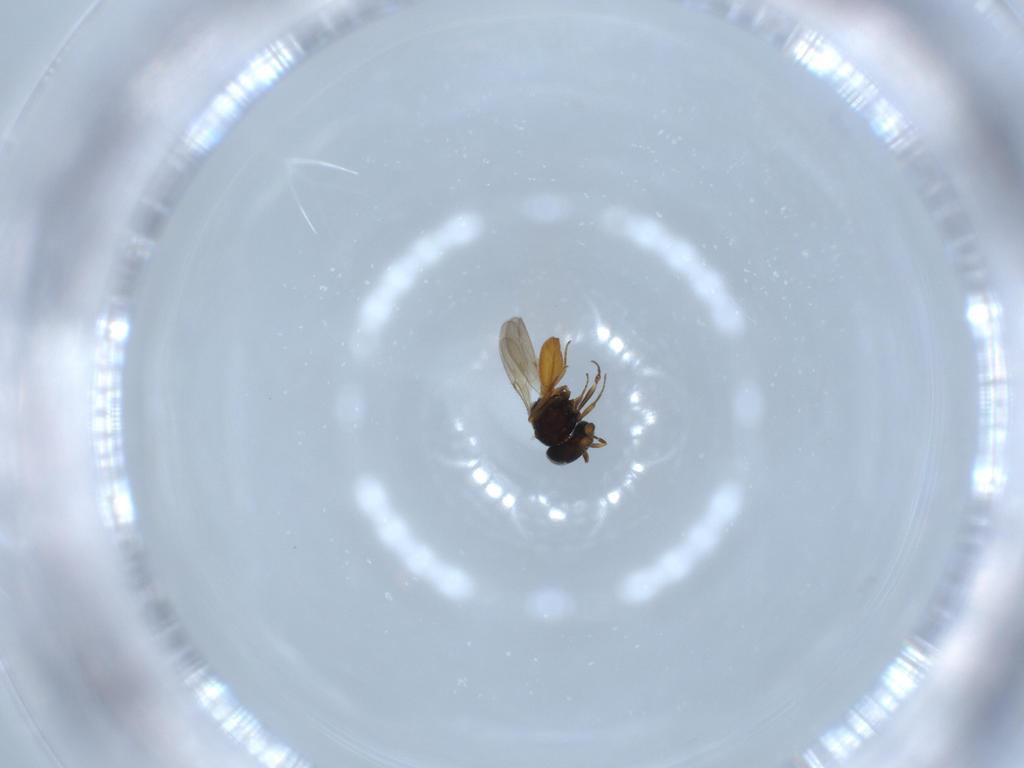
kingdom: Animalia
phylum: Arthropoda
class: Insecta
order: Hymenoptera
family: Scelionidae
